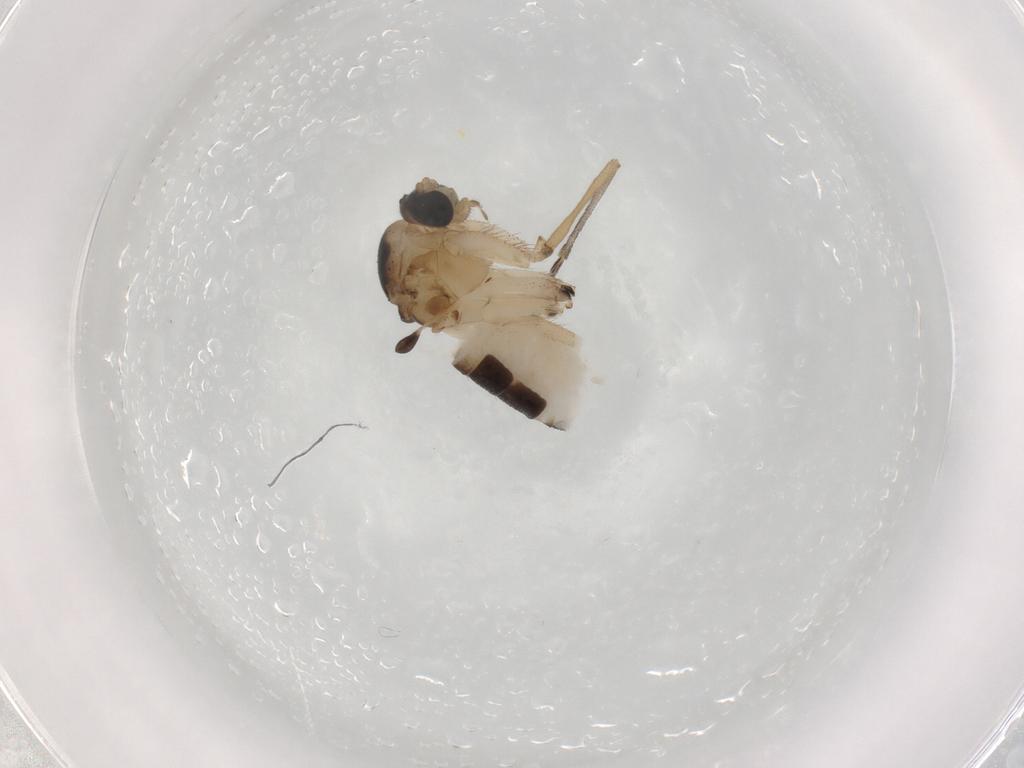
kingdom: Animalia
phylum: Arthropoda
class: Insecta
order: Diptera
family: Sciaridae
